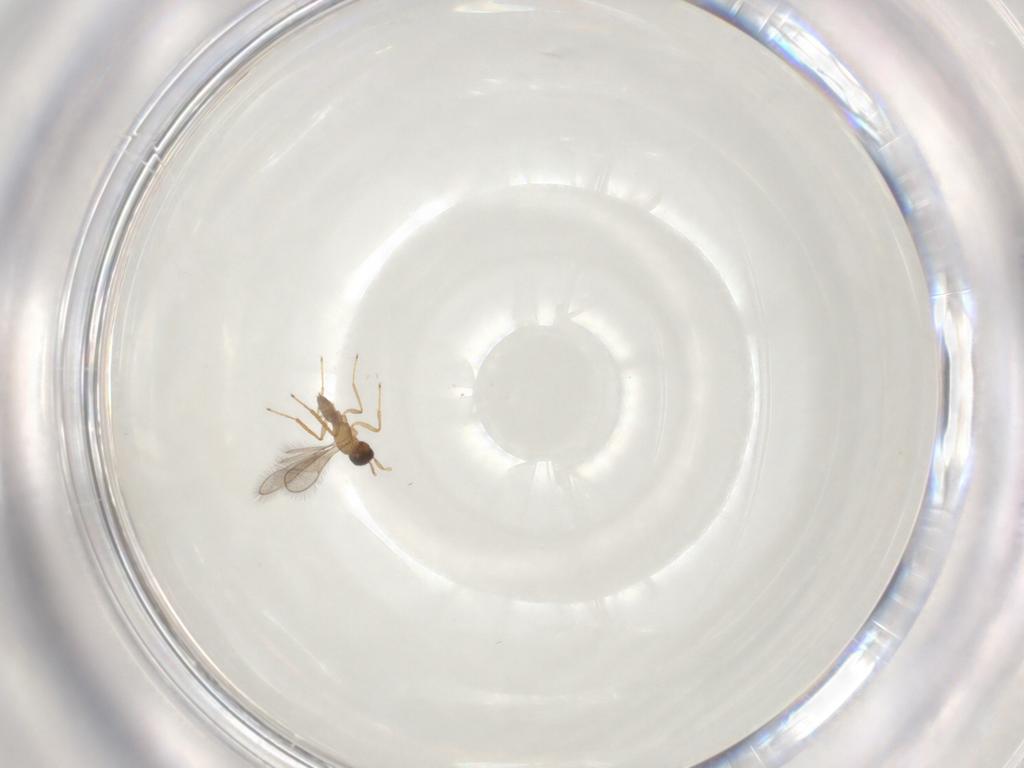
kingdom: Animalia
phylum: Arthropoda
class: Insecta
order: Hymenoptera
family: Mymaridae
